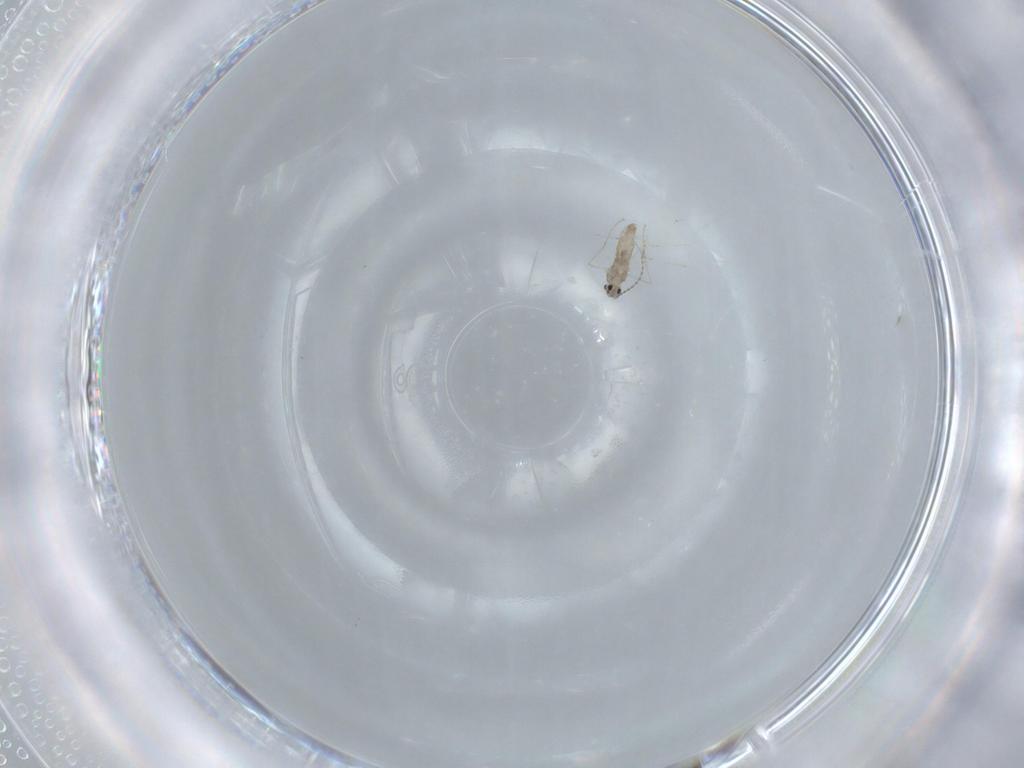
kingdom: Animalia
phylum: Arthropoda
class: Insecta
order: Diptera
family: Cecidomyiidae
